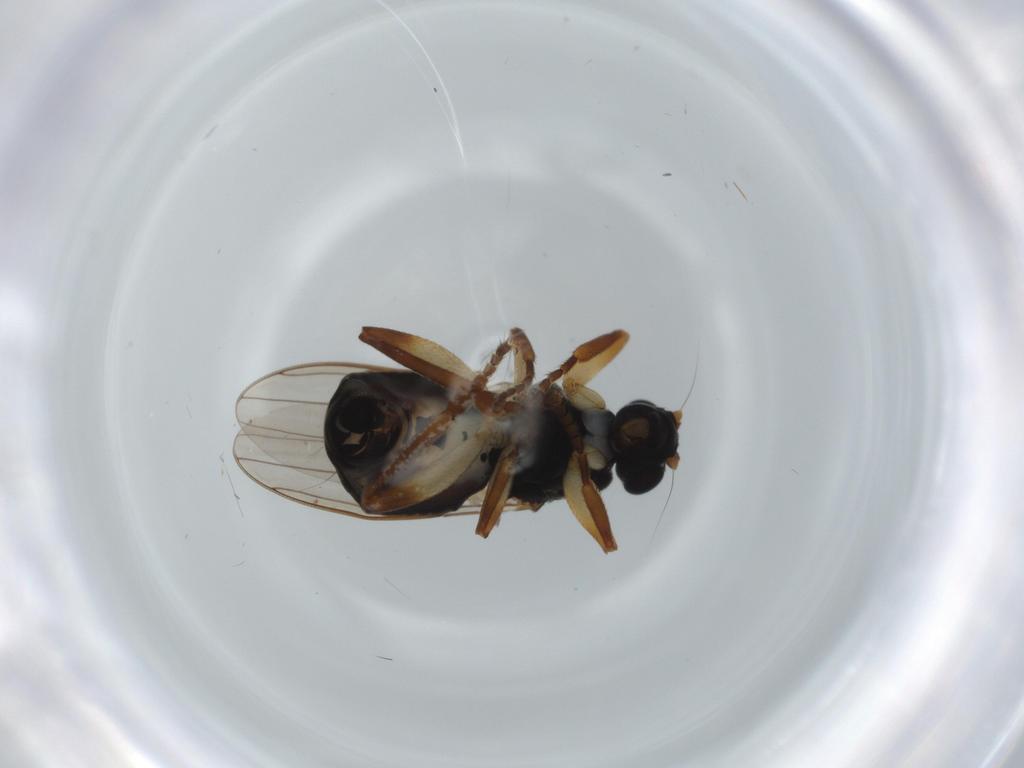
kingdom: Animalia
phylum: Arthropoda
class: Insecta
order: Diptera
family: Sphaeroceridae
